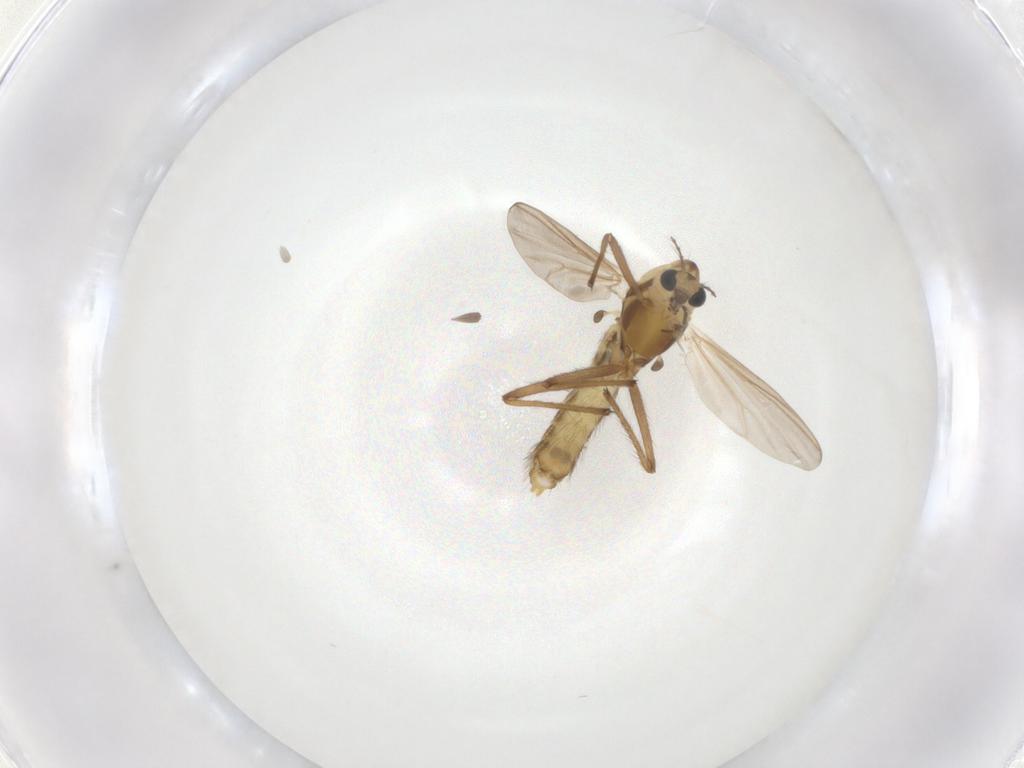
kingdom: Animalia
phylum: Arthropoda
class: Insecta
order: Diptera
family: Chironomidae
